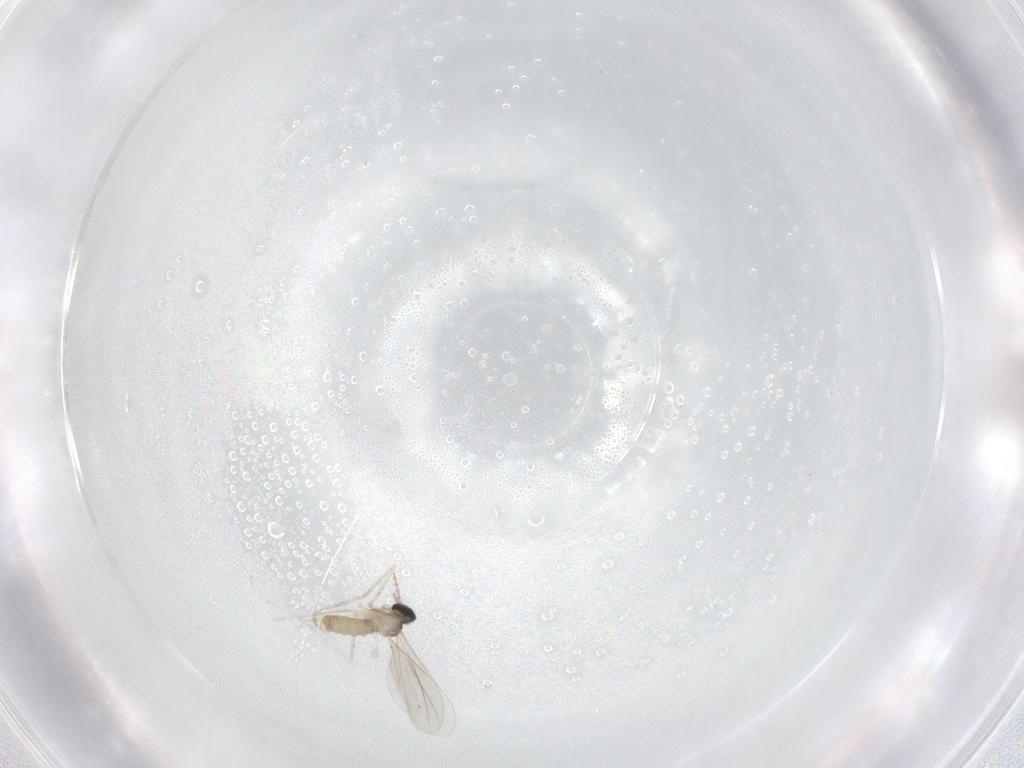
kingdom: Animalia
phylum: Arthropoda
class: Insecta
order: Diptera
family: Cecidomyiidae
